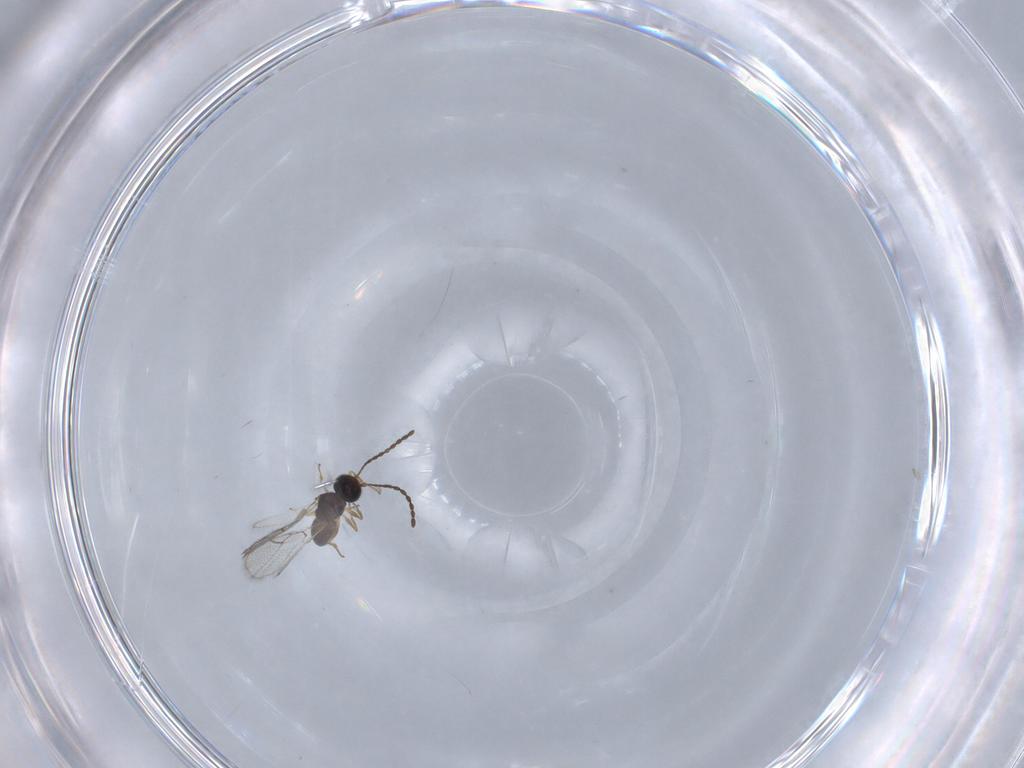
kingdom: Animalia
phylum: Arthropoda
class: Insecta
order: Hymenoptera
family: Figitidae
